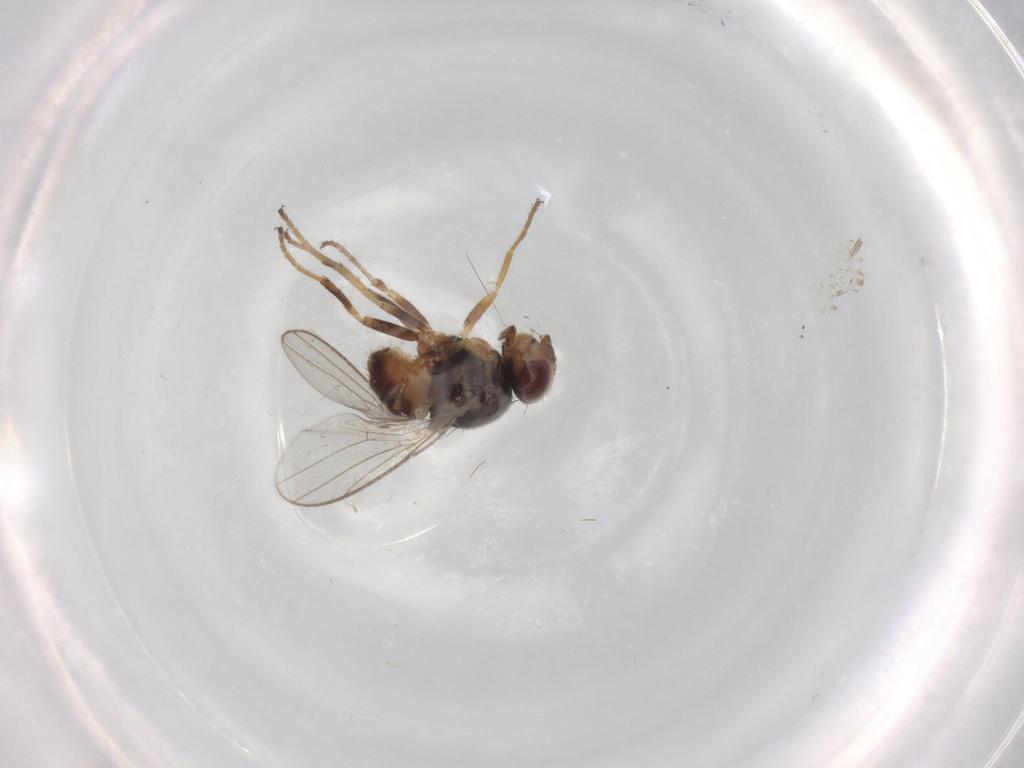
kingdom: Animalia
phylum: Arthropoda
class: Insecta
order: Diptera
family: Chloropidae
